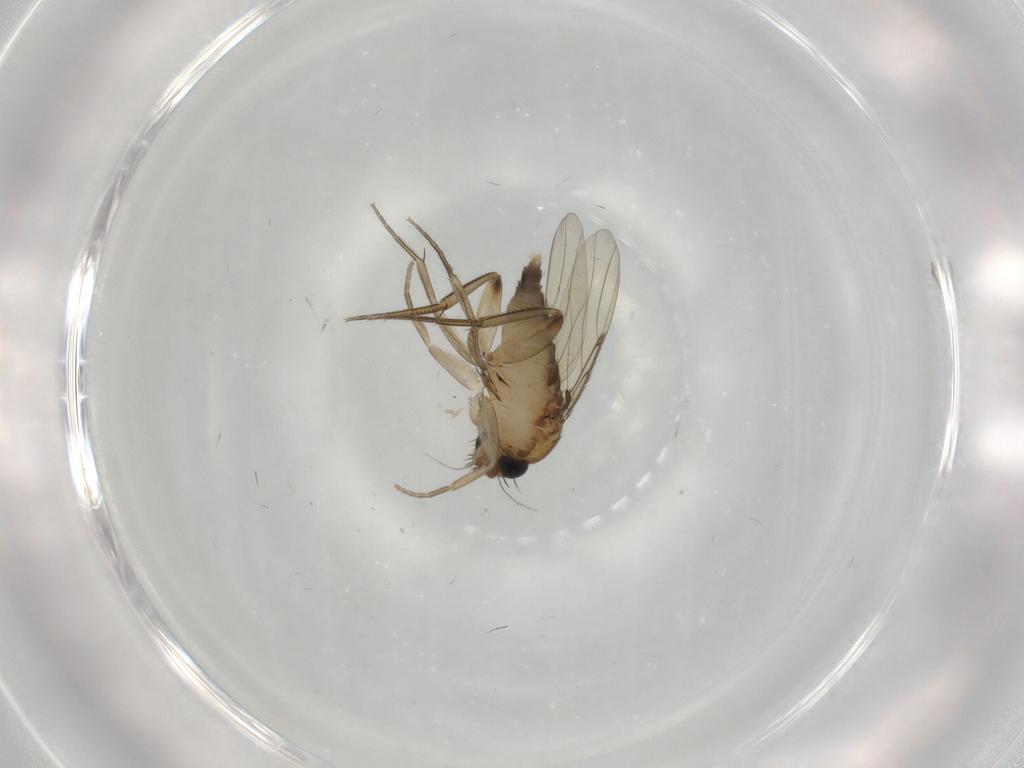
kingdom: Animalia
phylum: Arthropoda
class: Insecta
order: Diptera
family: Phoridae
